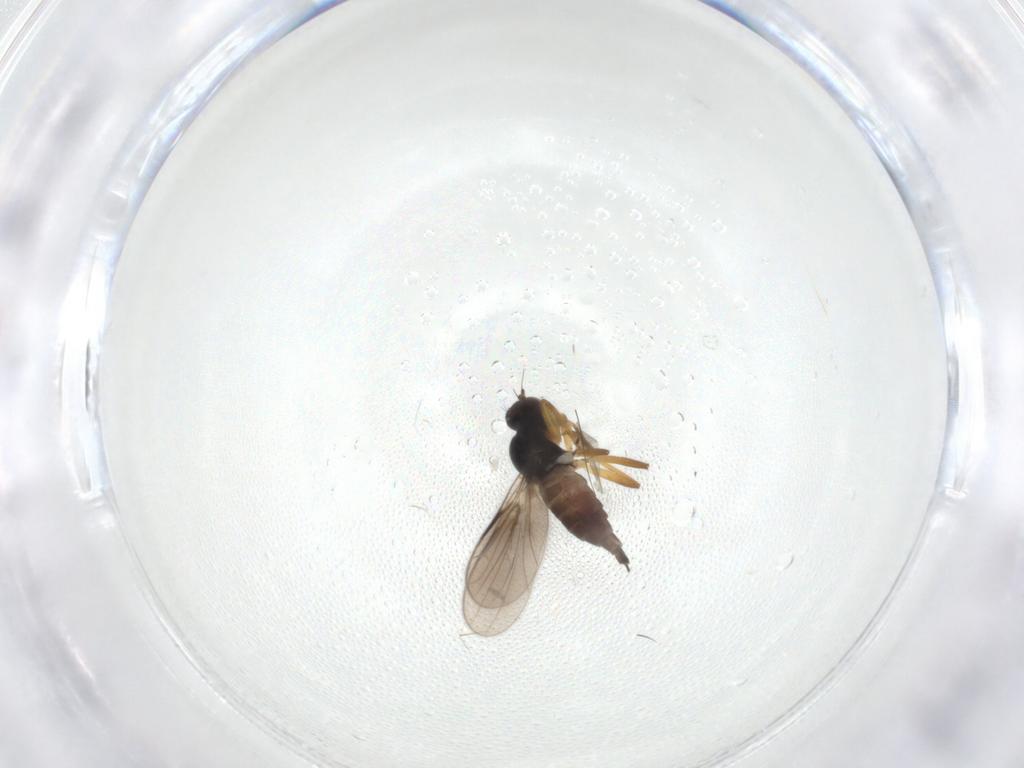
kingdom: Animalia
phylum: Arthropoda
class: Insecta
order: Diptera
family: Hybotidae
